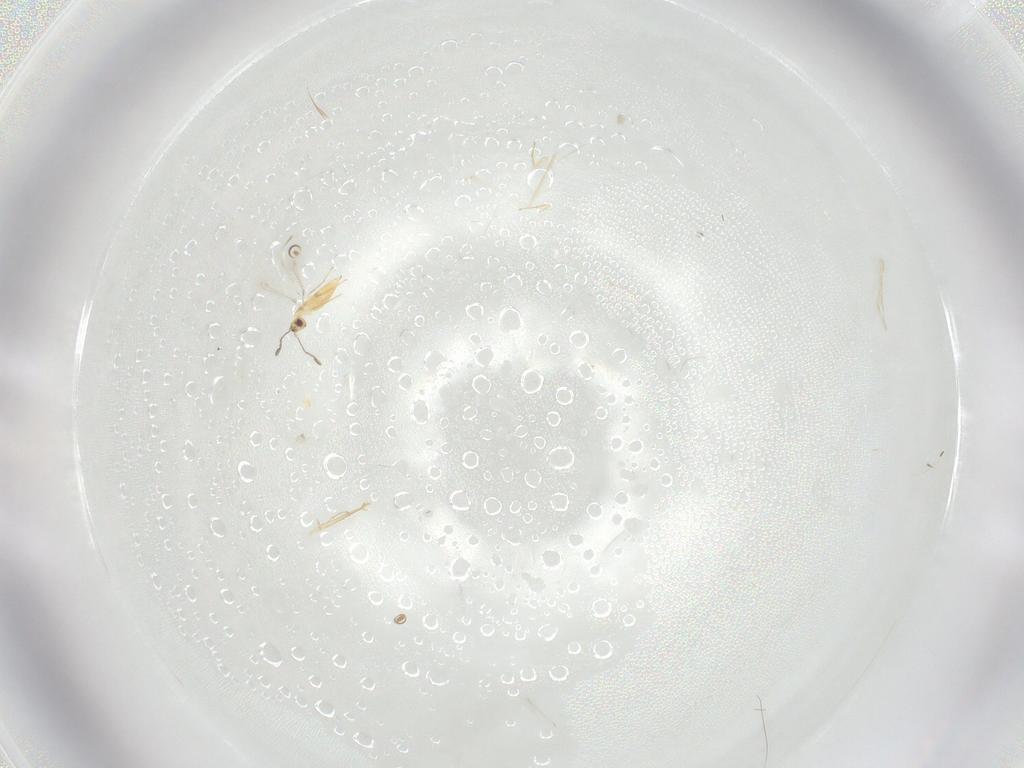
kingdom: Animalia
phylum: Arthropoda
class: Insecta
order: Hymenoptera
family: Mymaridae
